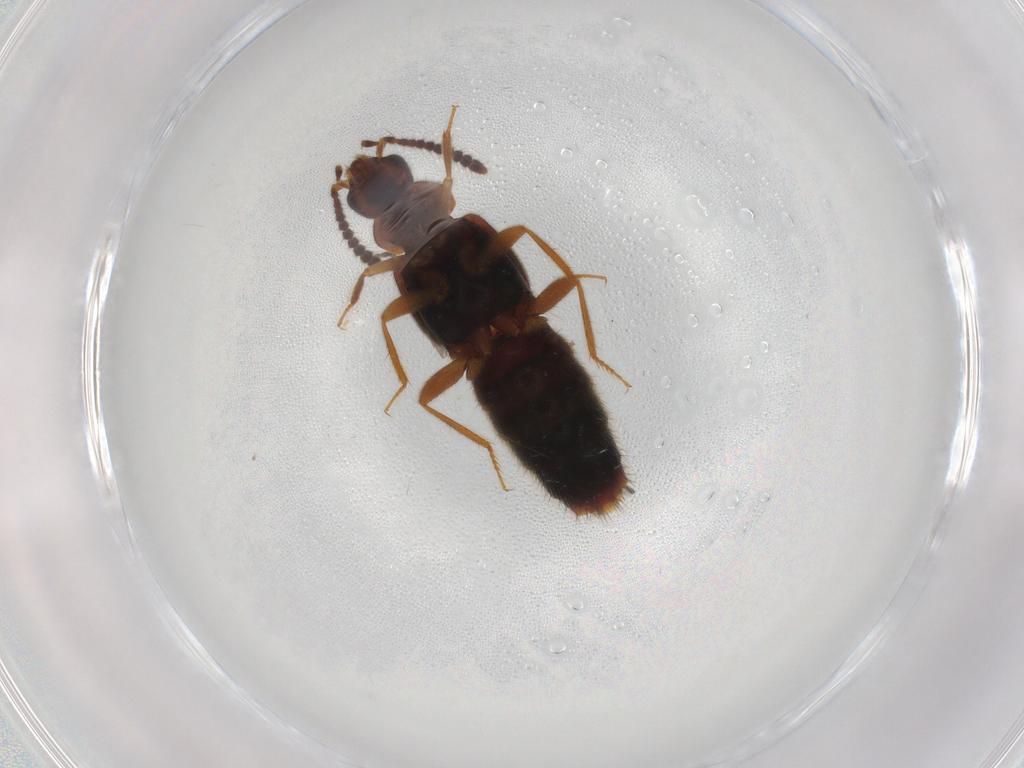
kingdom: Animalia
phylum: Arthropoda
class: Insecta
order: Coleoptera
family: Staphylinidae
